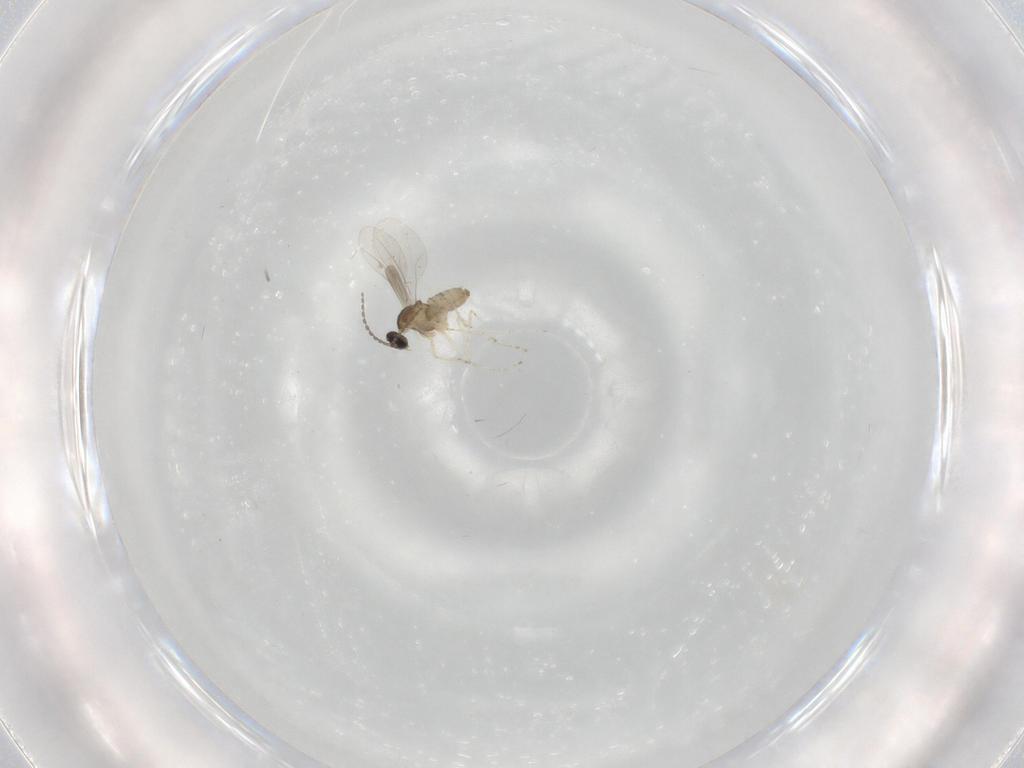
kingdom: Animalia
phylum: Arthropoda
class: Insecta
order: Diptera
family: Cecidomyiidae
